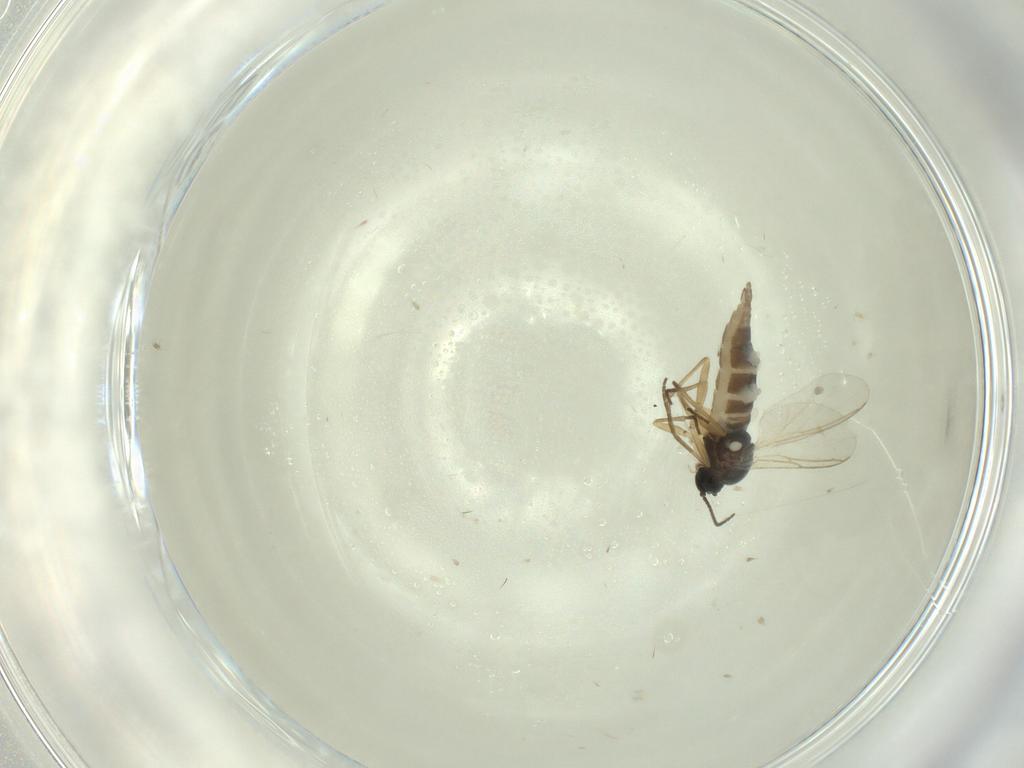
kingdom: Animalia
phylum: Arthropoda
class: Insecta
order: Diptera
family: Sciaridae
